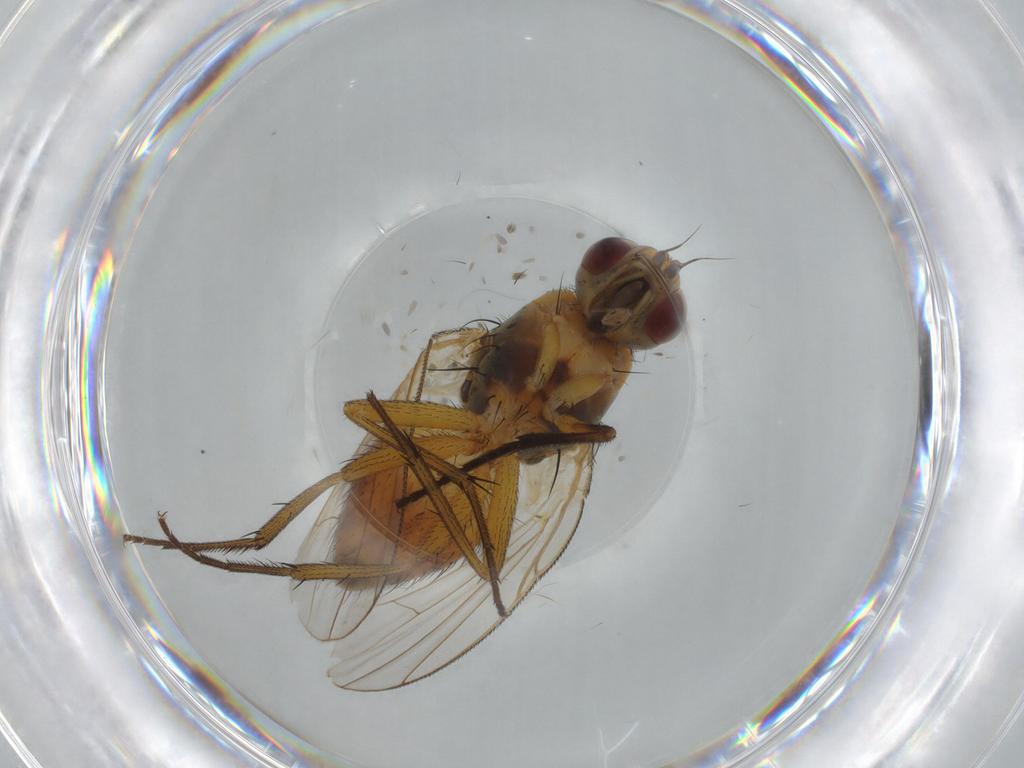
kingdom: Animalia
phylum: Arthropoda
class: Insecta
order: Diptera
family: Muscidae
